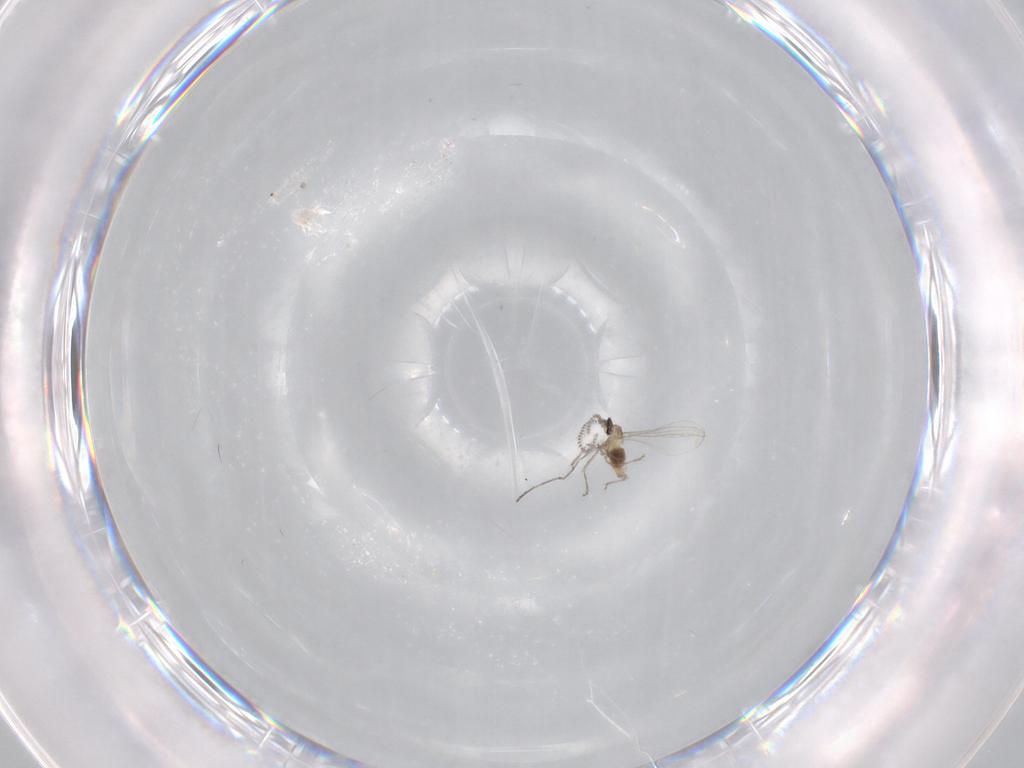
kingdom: Animalia
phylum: Arthropoda
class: Insecta
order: Diptera
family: Cecidomyiidae
